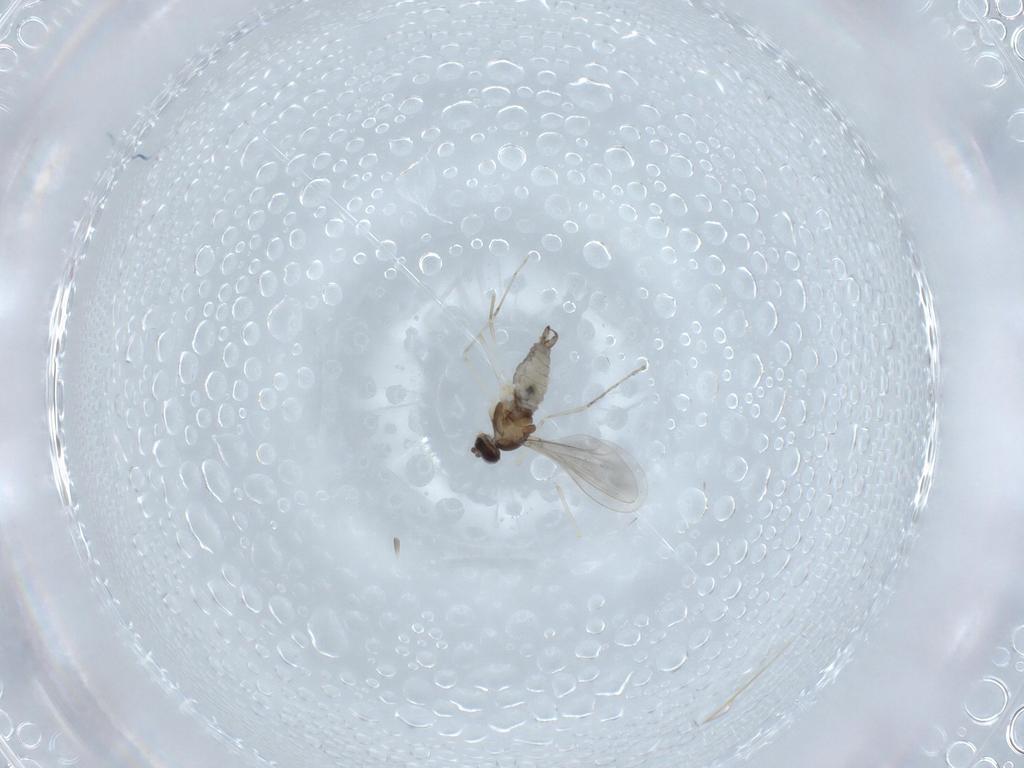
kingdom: Animalia
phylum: Arthropoda
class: Insecta
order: Diptera
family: Cecidomyiidae
